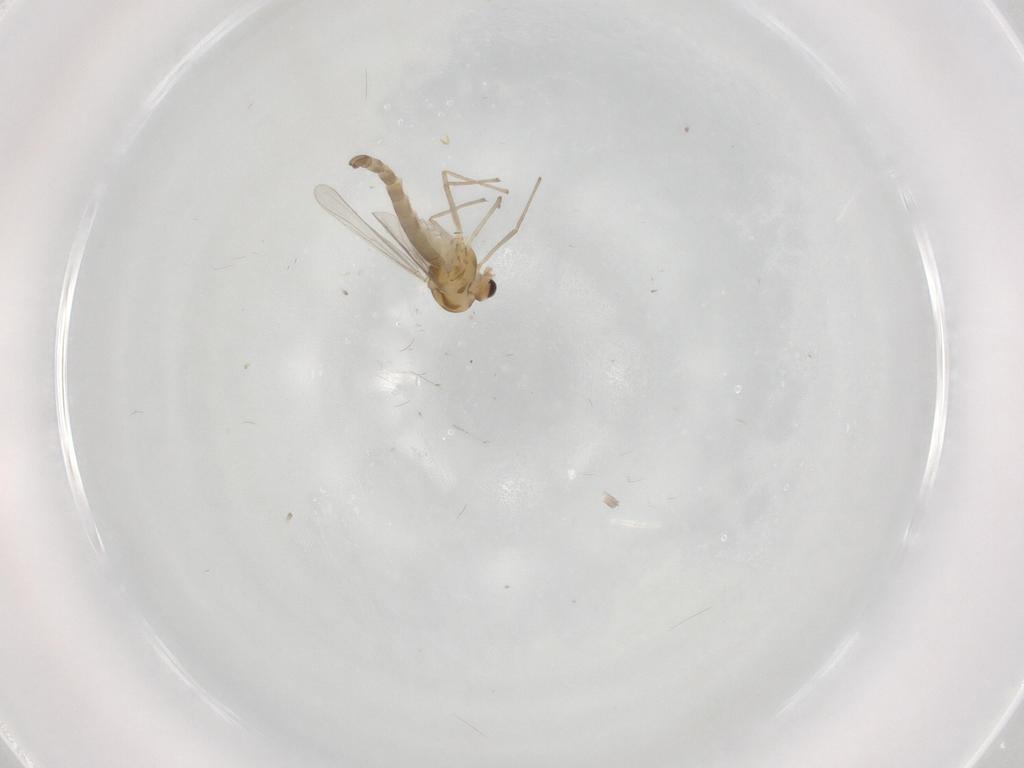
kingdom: Animalia
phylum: Arthropoda
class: Insecta
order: Diptera
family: Chironomidae
